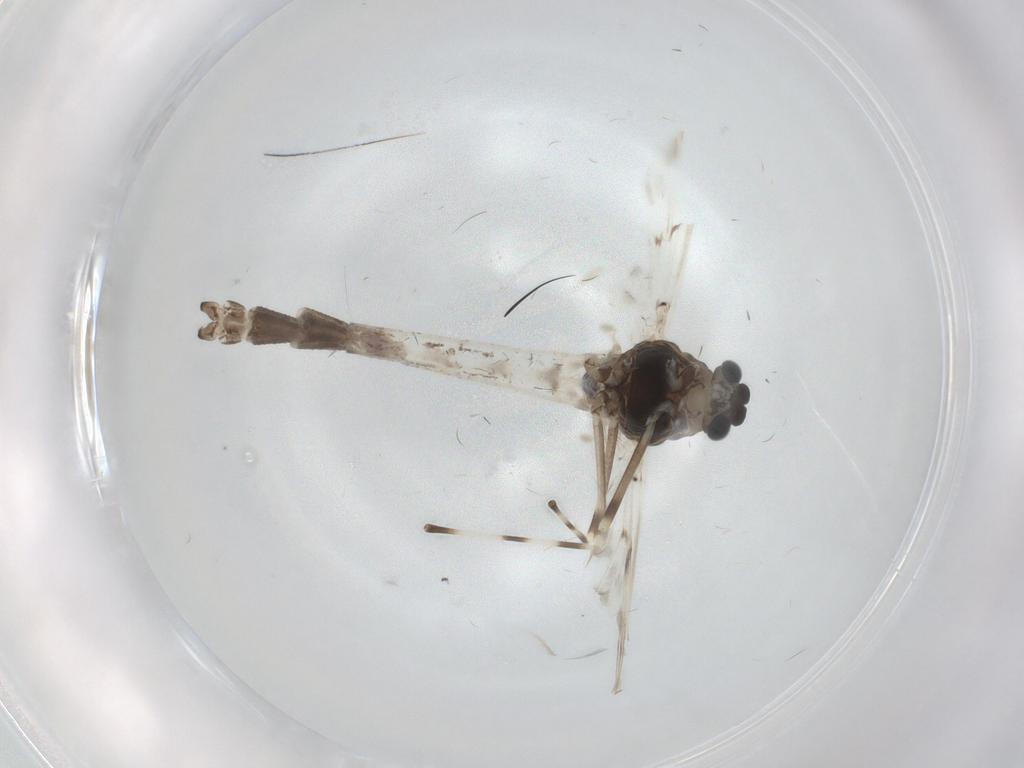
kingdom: Animalia
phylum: Arthropoda
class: Insecta
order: Diptera
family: Chironomidae
